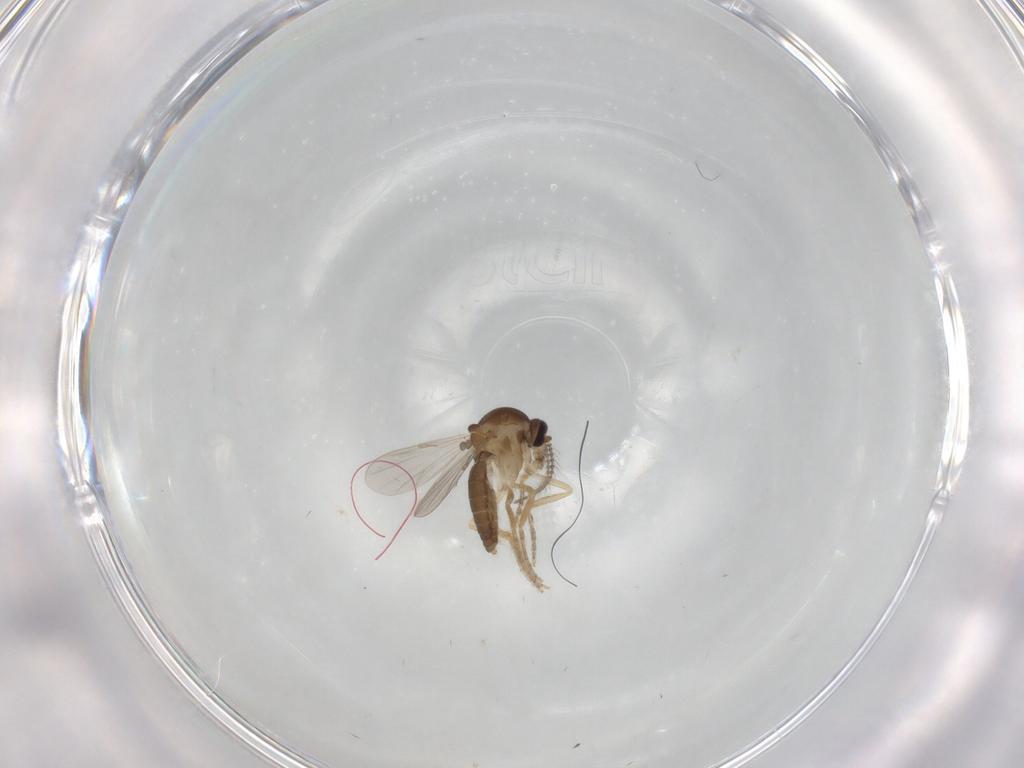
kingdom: Animalia
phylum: Arthropoda
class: Insecta
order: Diptera
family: Ceratopogonidae
